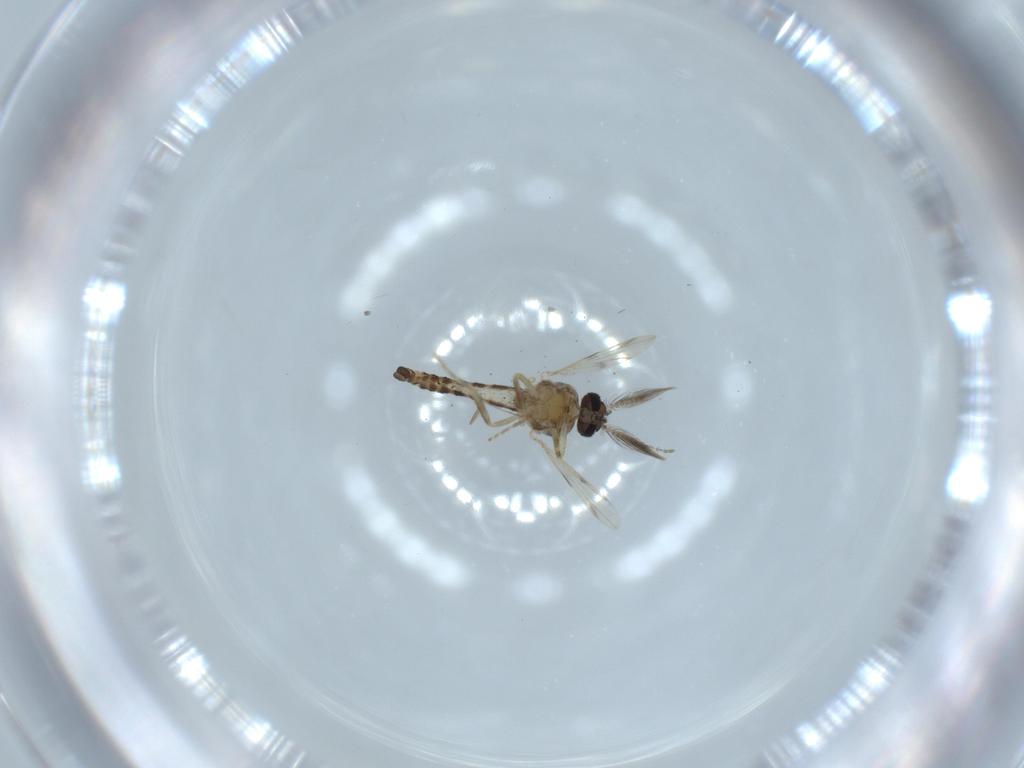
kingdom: Animalia
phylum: Arthropoda
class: Insecta
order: Diptera
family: Ceratopogonidae
